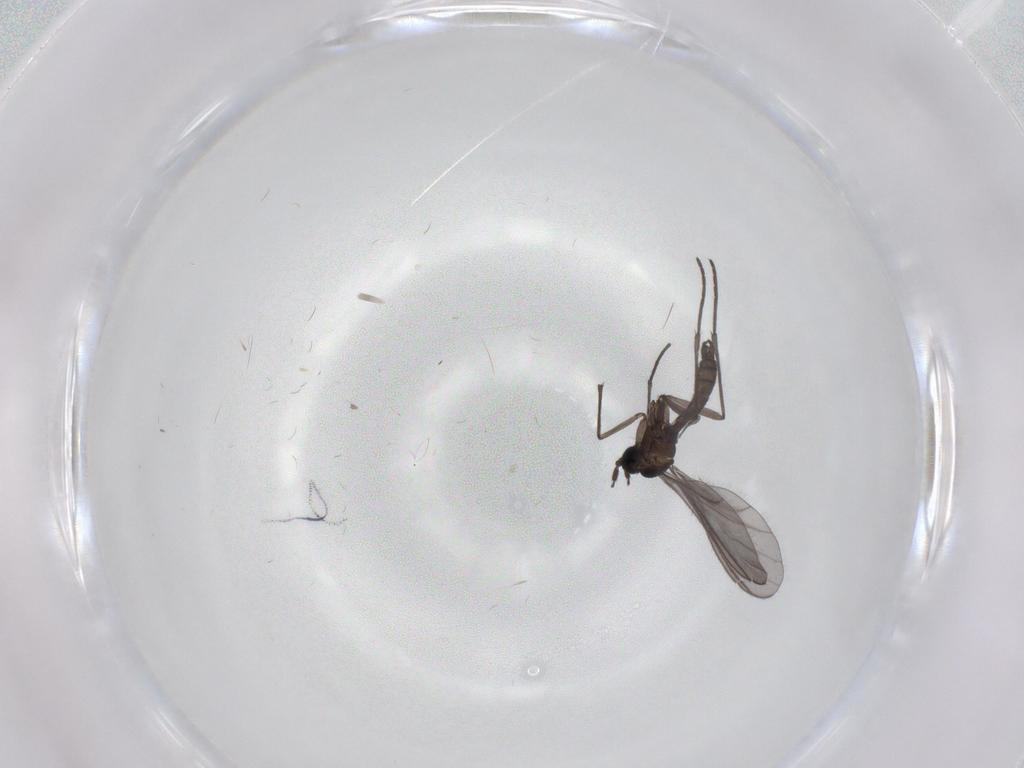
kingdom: Animalia
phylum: Arthropoda
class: Insecta
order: Diptera
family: Sciaridae
